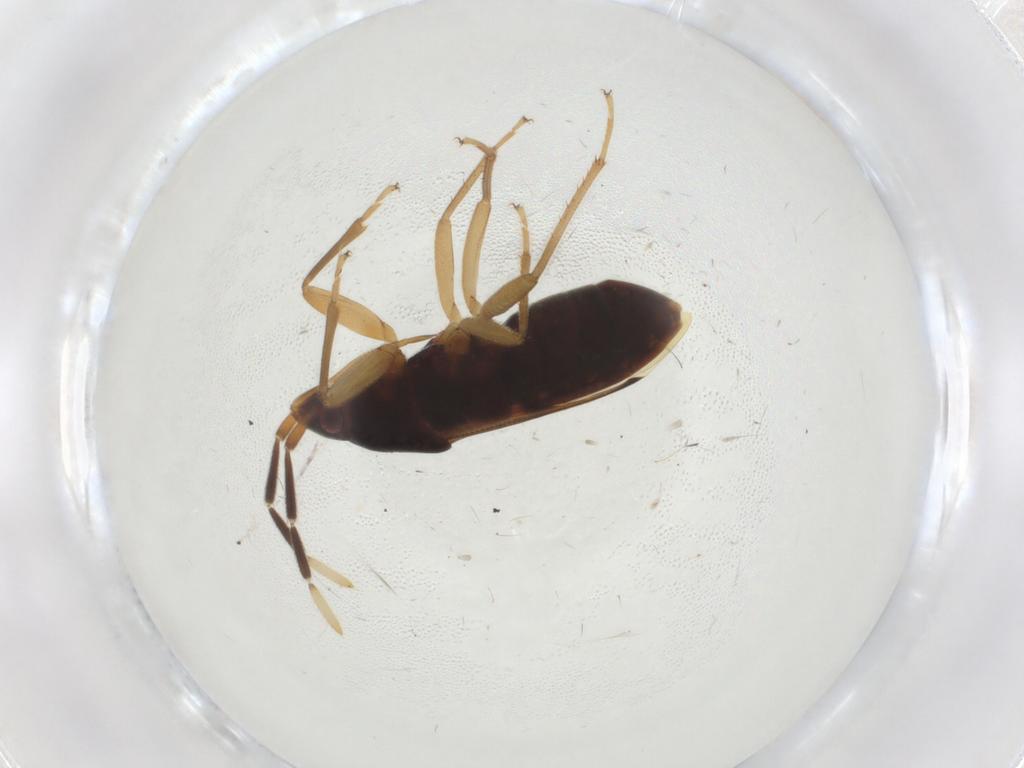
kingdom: Animalia
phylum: Arthropoda
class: Insecta
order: Hemiptera
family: Rhyparochromidae
